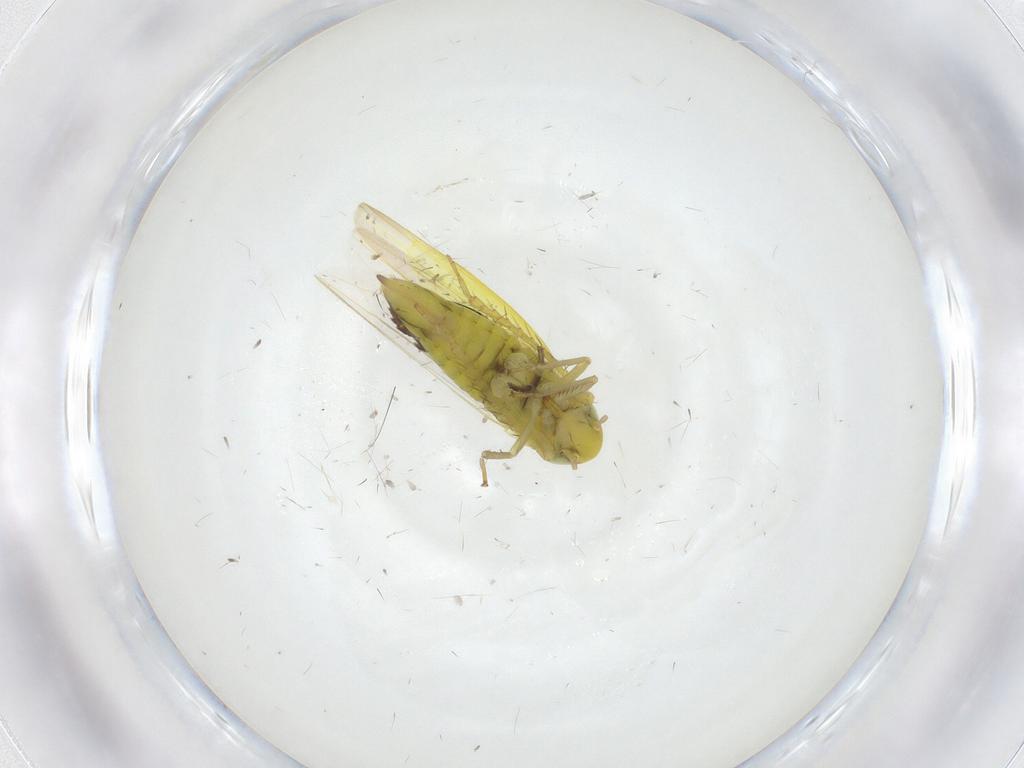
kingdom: Animalia
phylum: Arthropoda
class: Insecta
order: Hemiptera
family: Cicadellidae
